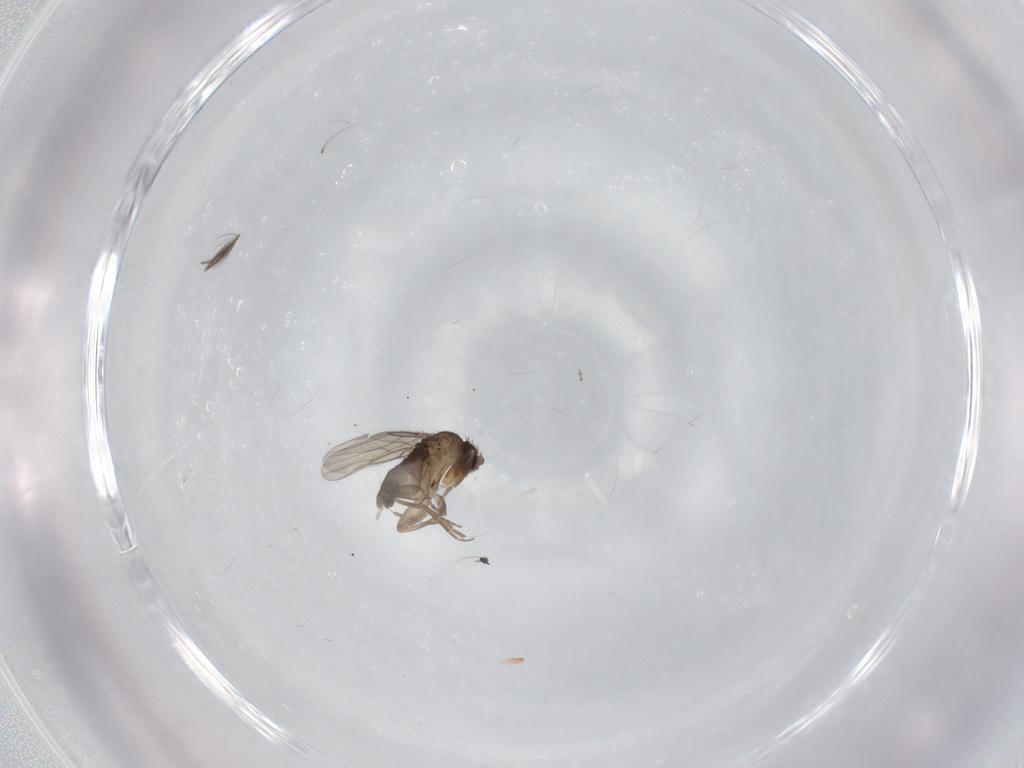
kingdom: Animalia
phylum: Arthropoda
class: Insecta
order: Diptera
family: Ceratopogonidae
